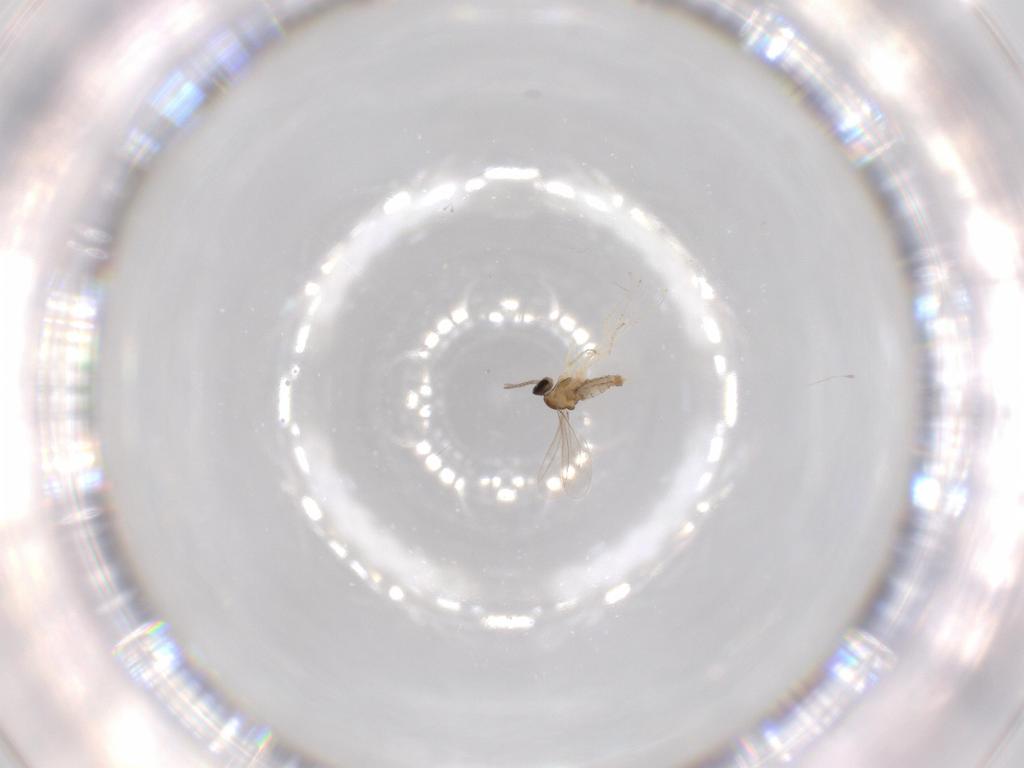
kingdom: Animalia
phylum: Arthropoda
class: Insecta
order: Diptera
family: Cecidomyiidae
